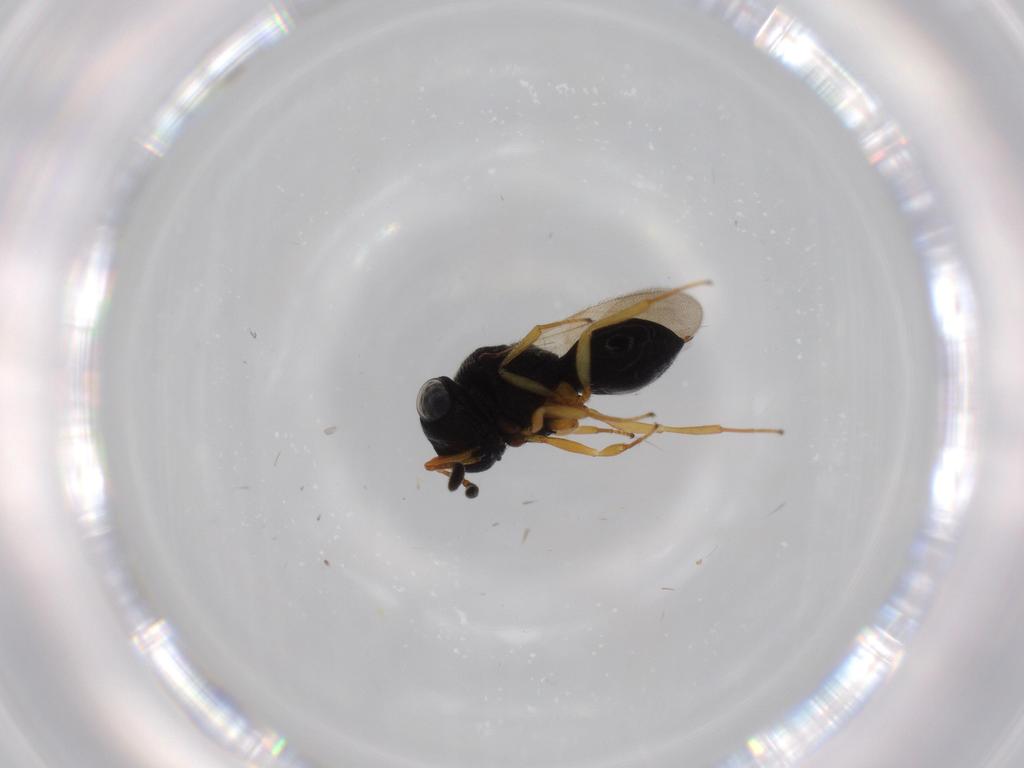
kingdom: Animalia
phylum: Arthropoda
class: Insecta
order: Hymenoptera
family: Scelionidae
